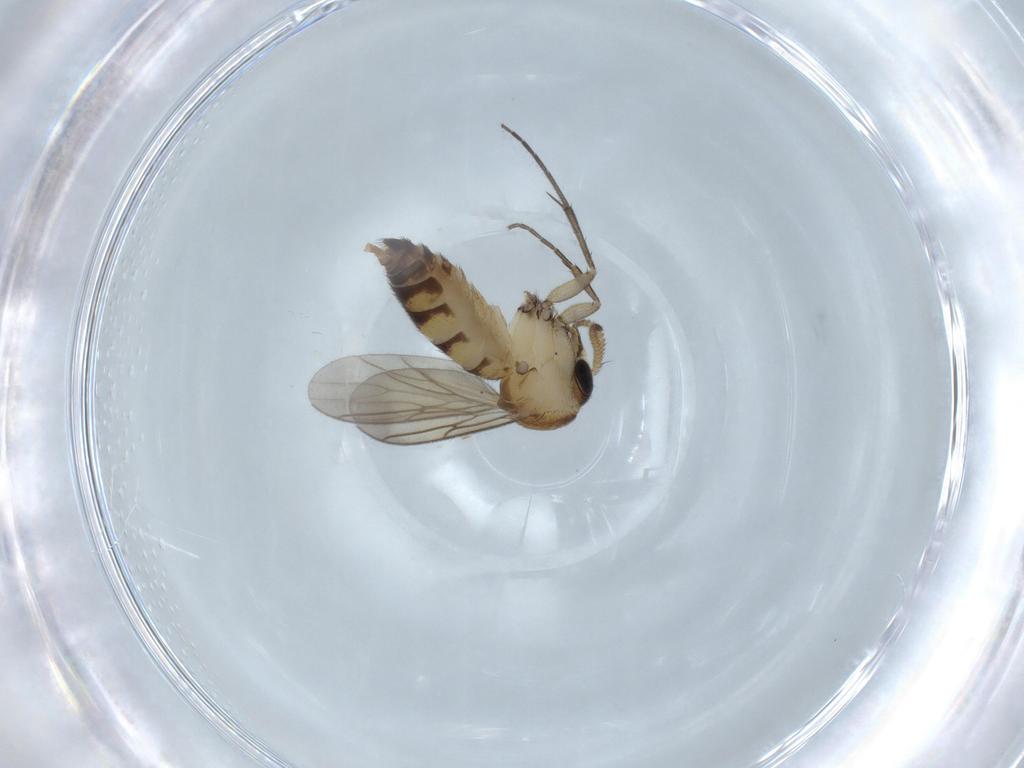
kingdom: Animalia
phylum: Arthropoda
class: Insecta
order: Diptera
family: Mycetophilidae
